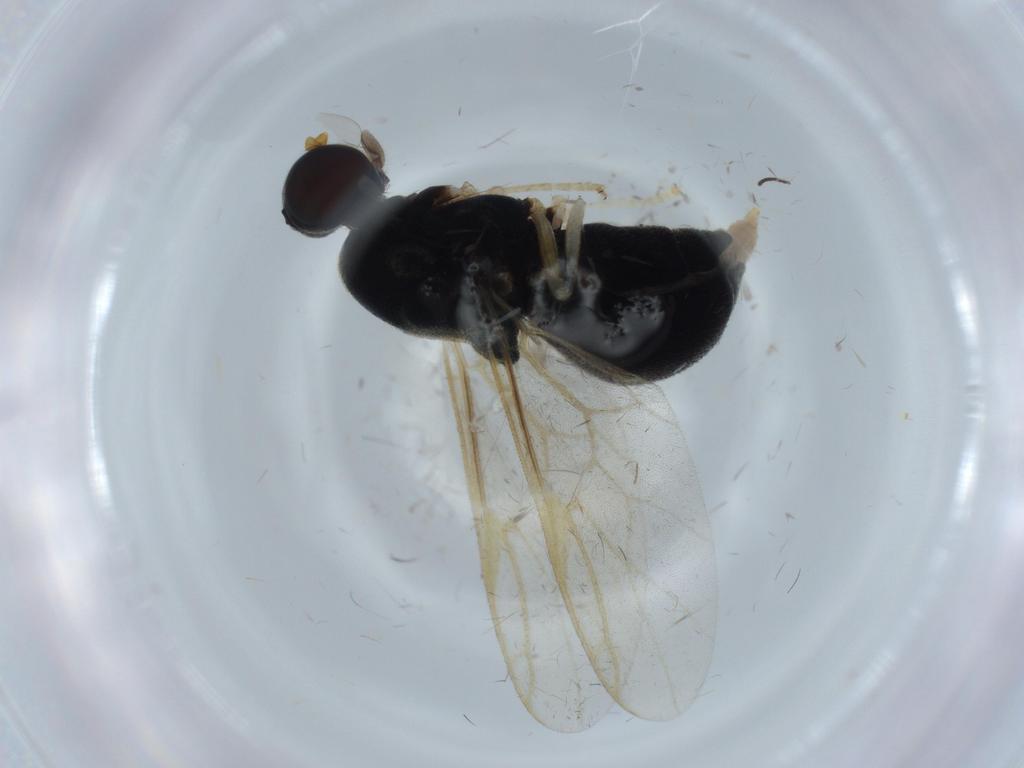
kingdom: Animalia
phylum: Arthropoda
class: Insecta
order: Diptera
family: Stratiomyidae
